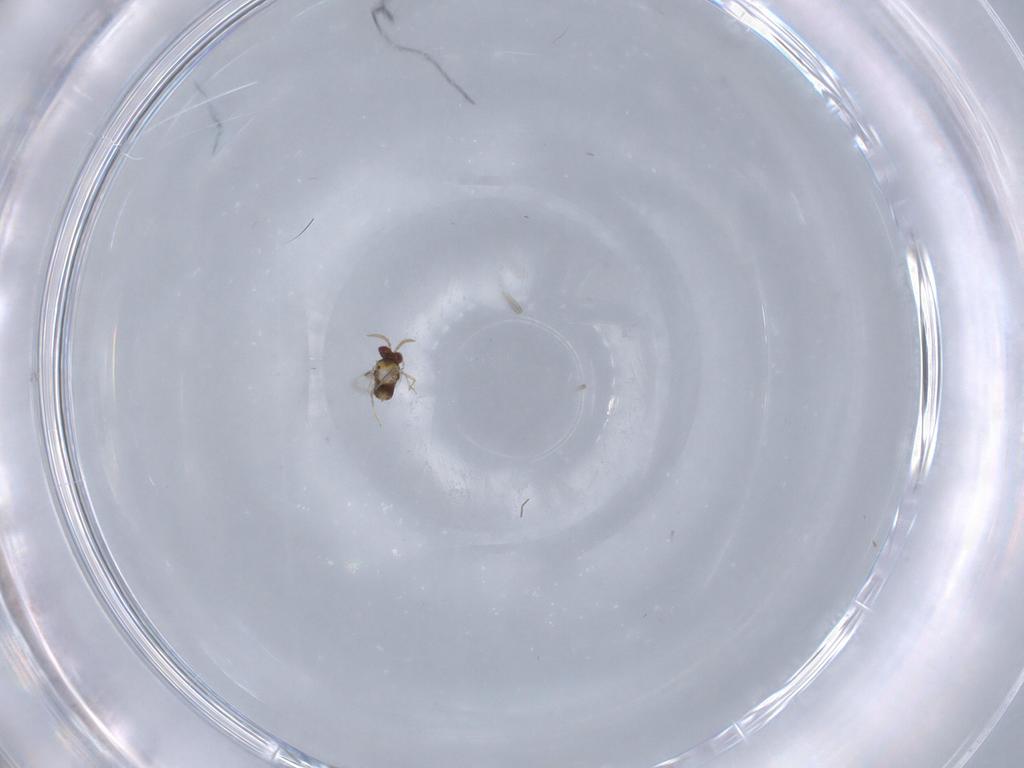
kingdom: Animalia
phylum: Arthropoda
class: Insecta
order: Hymenoptera
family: Aphelinidae
